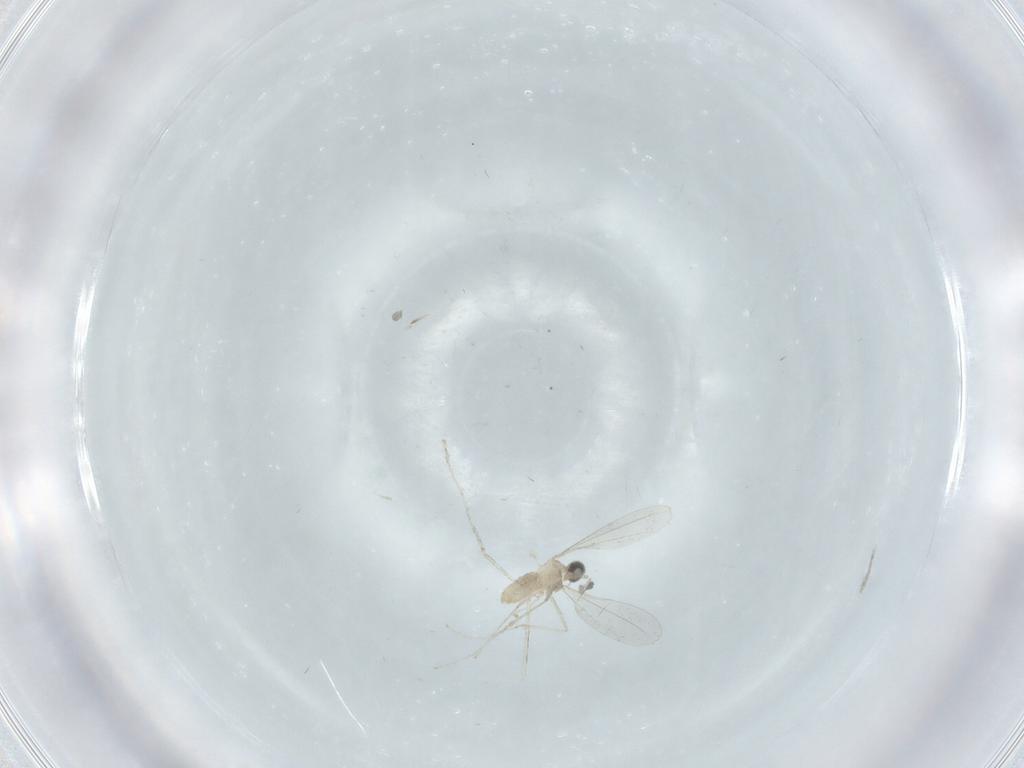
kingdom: Animalia
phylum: Arthropoda
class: Insecta
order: Diptera
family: Cecidomyiidae
